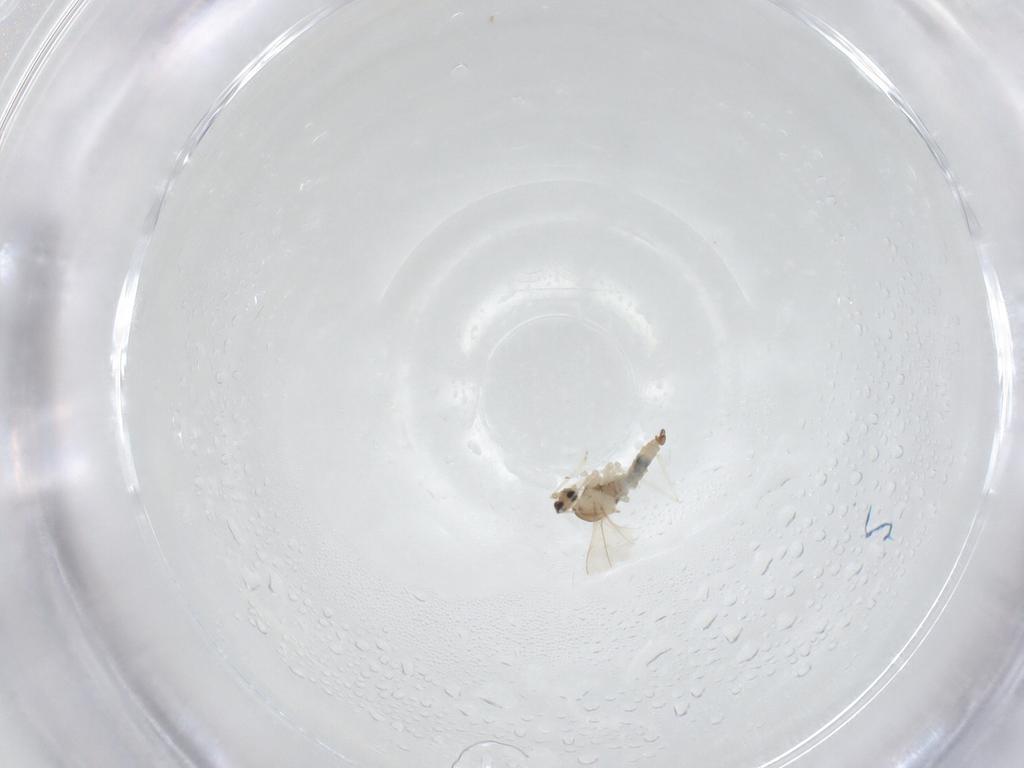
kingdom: Animalia
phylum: Arthropoda
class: Insecta
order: Diptera
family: Cecidomyiidae
